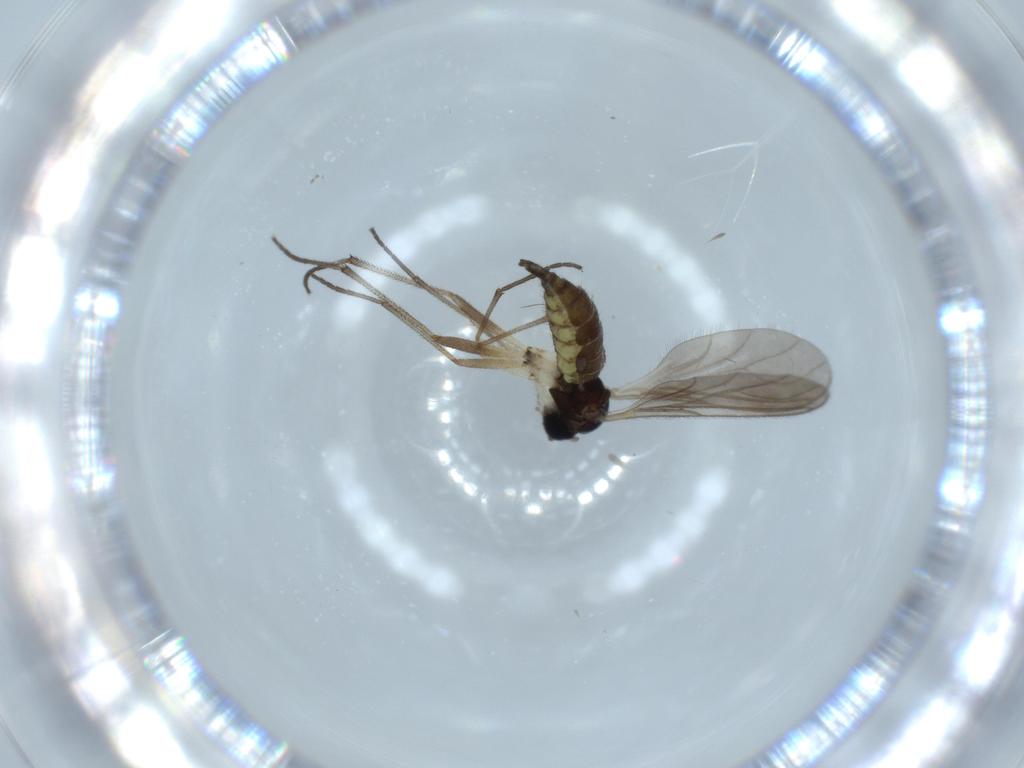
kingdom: Animalia
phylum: Arthropoda
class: Insecta
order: Diptera
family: Sciaridae
